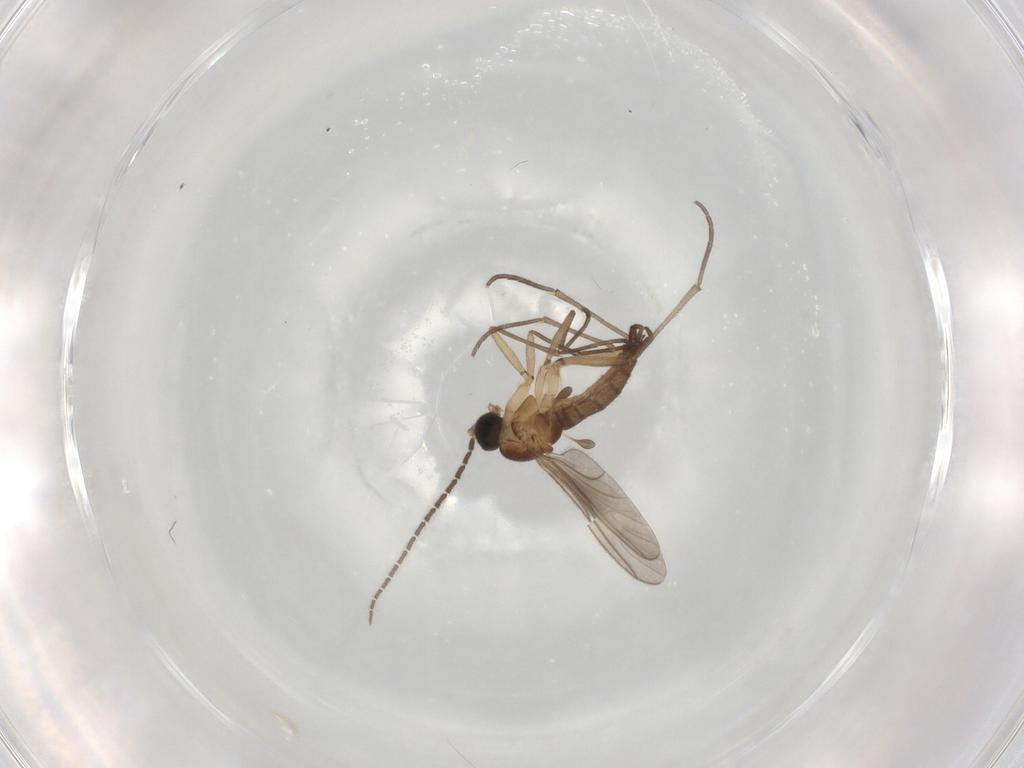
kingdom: Animalia
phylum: Arthropoda
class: Insecta
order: Diptera
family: Sciaridae
